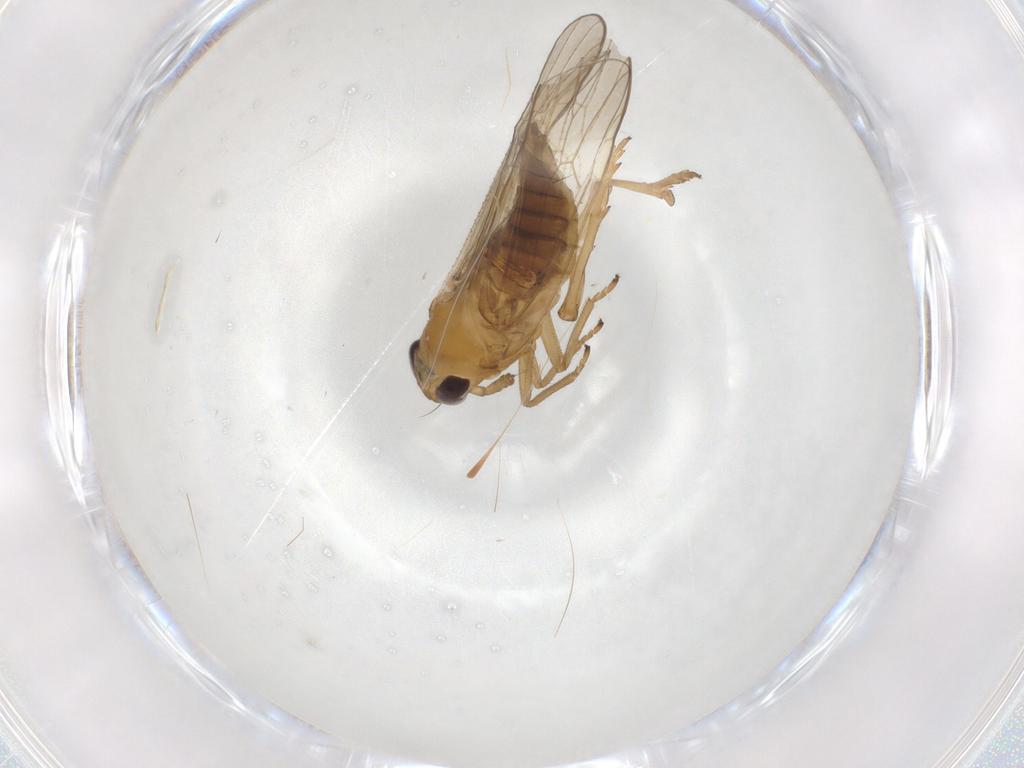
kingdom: Animalia
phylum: Arthropoda
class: Insecta
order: Hemiptera
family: Delphacidae
